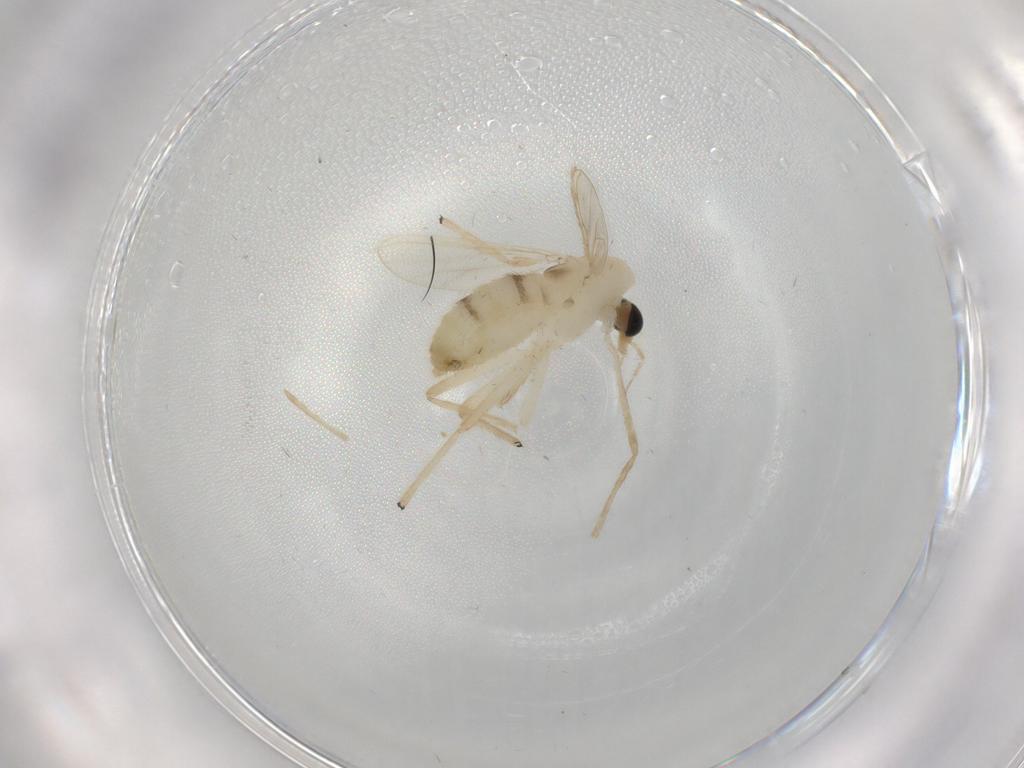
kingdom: Animalia
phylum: Arthropoda
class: Insecta
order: Diptera
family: Chironomidae
